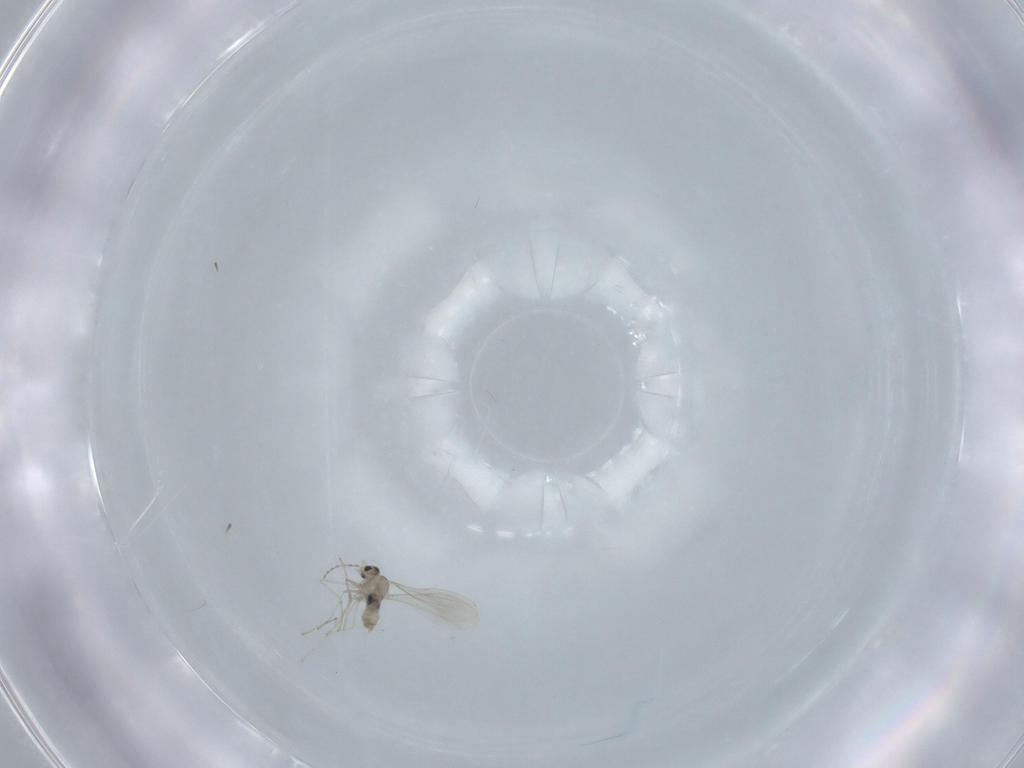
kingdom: Animalia
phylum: Arthropoda
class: Insecta
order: Diptera
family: Cecidomyiidae
